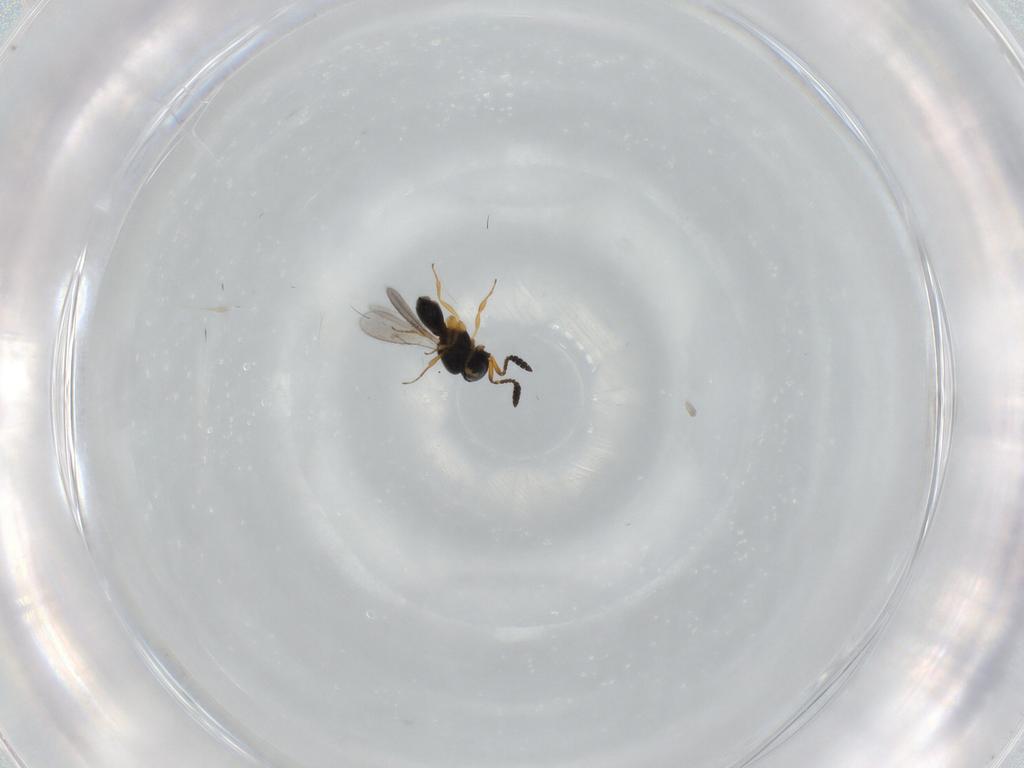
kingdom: Animalia
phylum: Arthropoda
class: Insecta
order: Hymenoptera
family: Scelionidae
